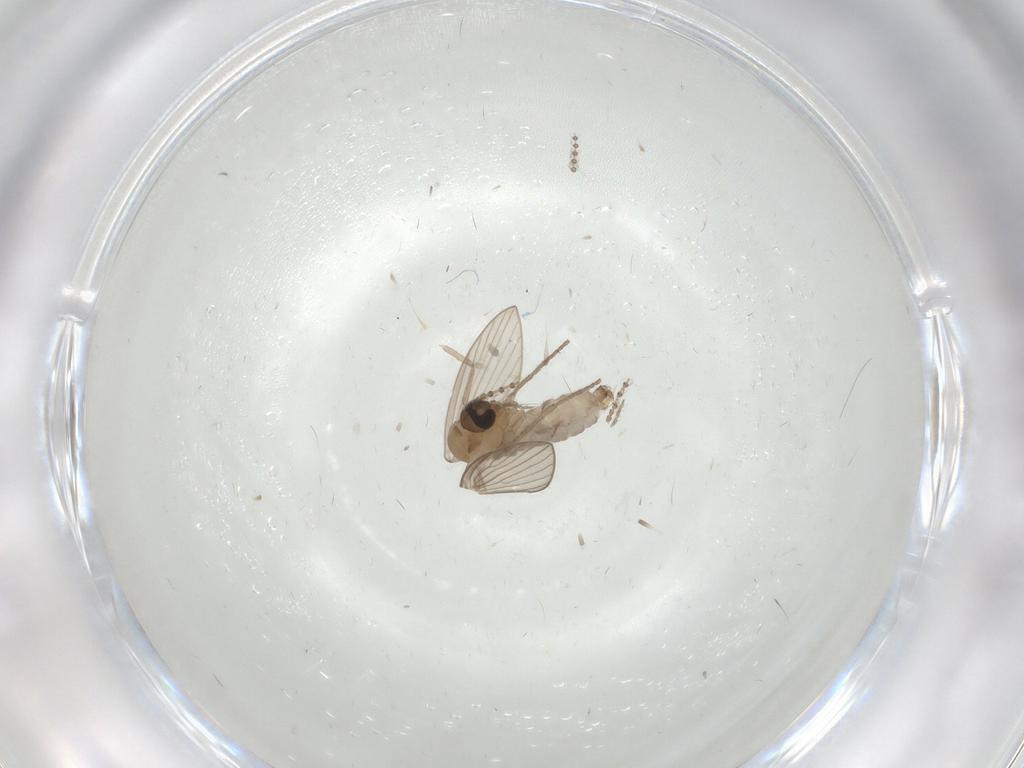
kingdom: Animalia
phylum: Arthropoda
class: Insecta
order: Diptera
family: Psychodidae
